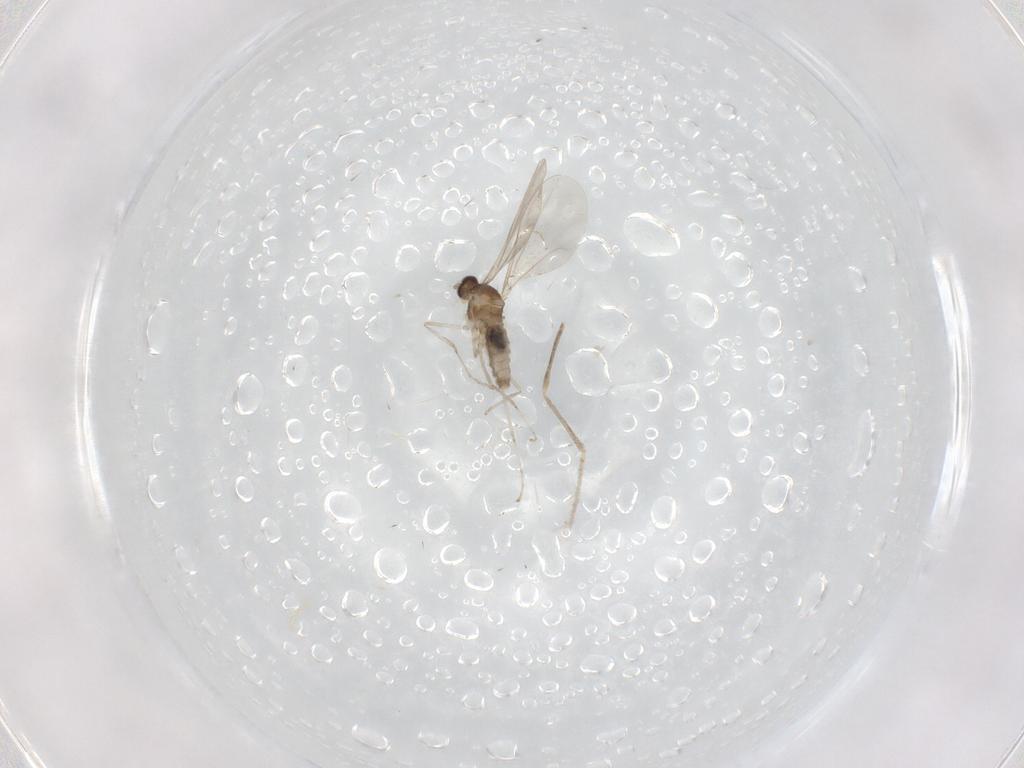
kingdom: Animalia
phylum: Arthropoda
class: Insecta
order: Diptera
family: Cecidomyiidae
